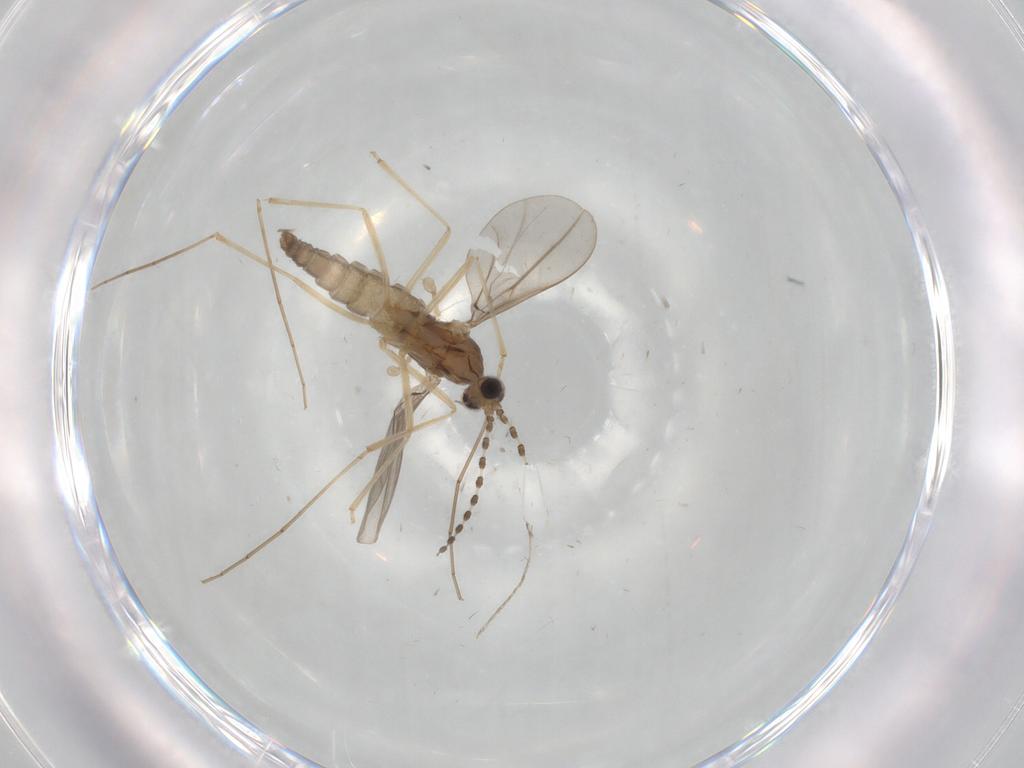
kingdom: Animalia
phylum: Arthropoda
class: Insecta
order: Diptera
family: Cecidomyiidae
